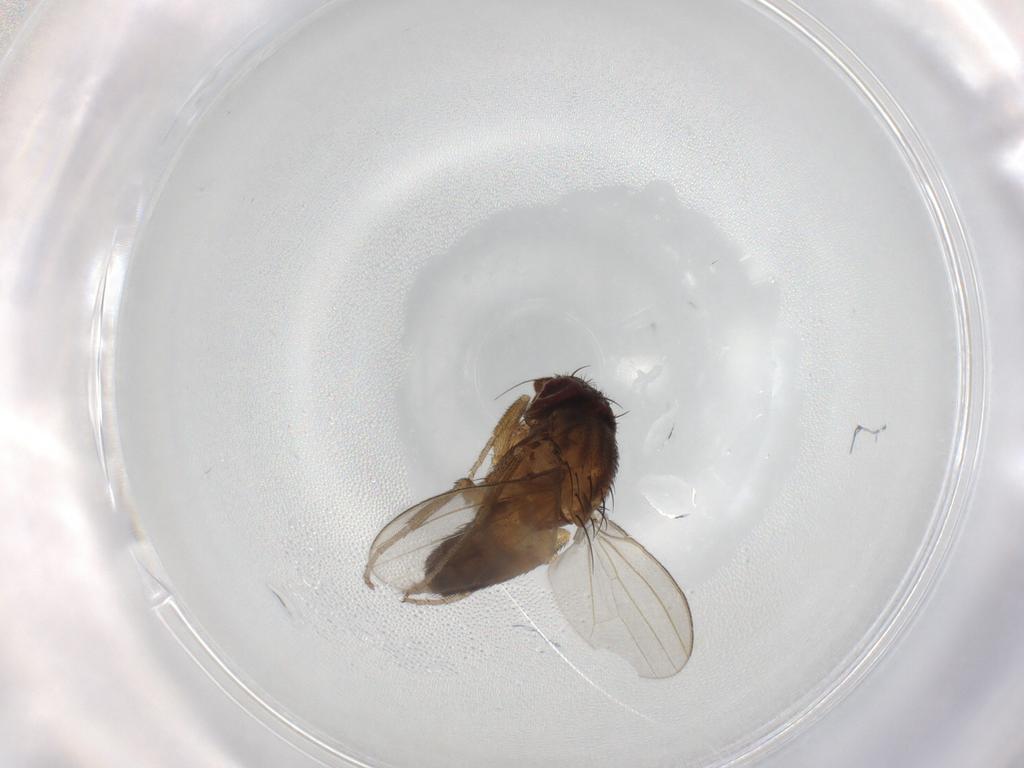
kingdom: Animalia
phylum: Arthropoda
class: Insecta
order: Diptera
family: Milichiidae
